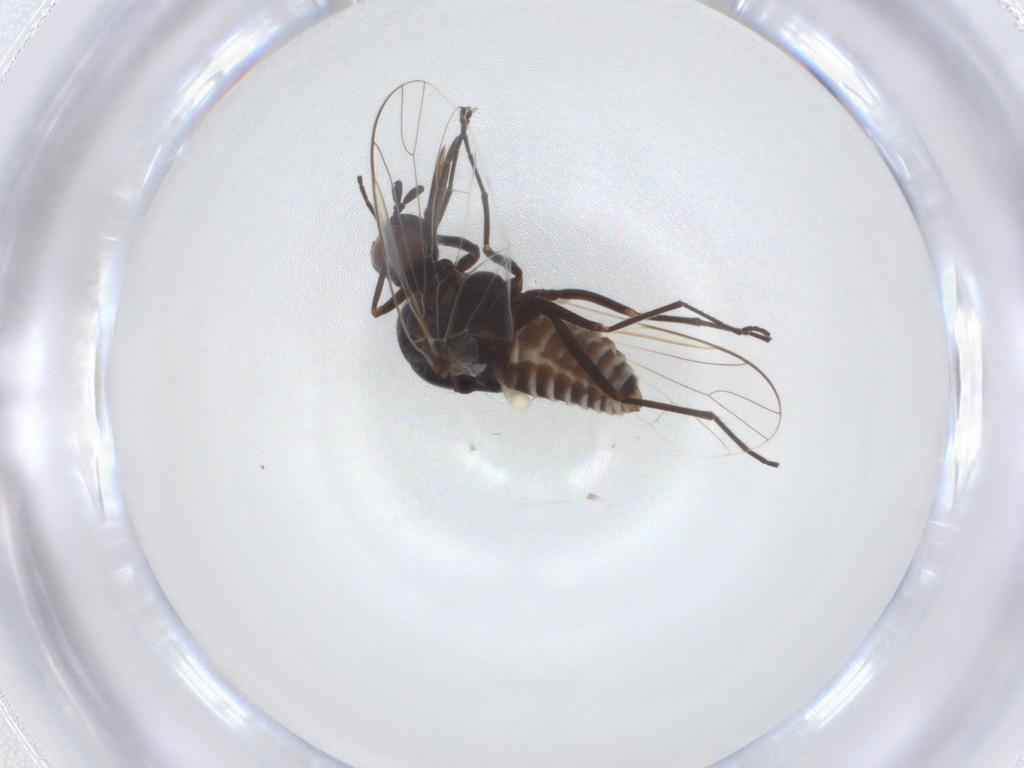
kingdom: Animalia
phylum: Arthropoda
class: Insecta
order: Diptera
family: Bombyliidae
